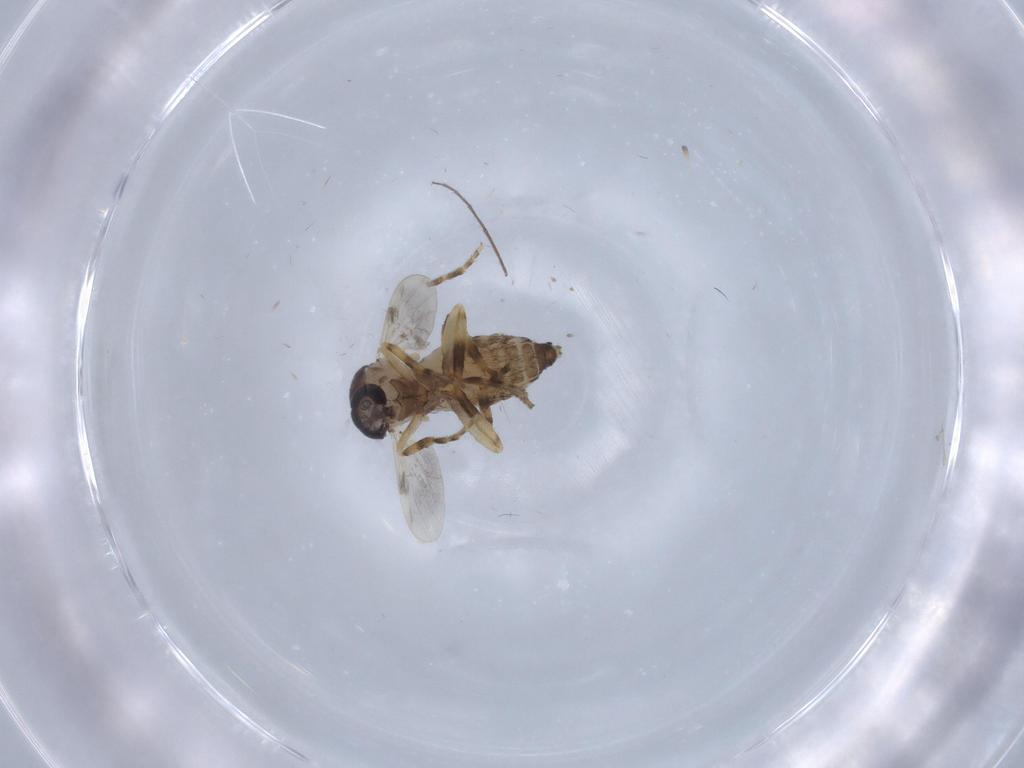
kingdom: Animalia
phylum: Arthropoda
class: Insecta
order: Diptera
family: Ceratopogonidae
